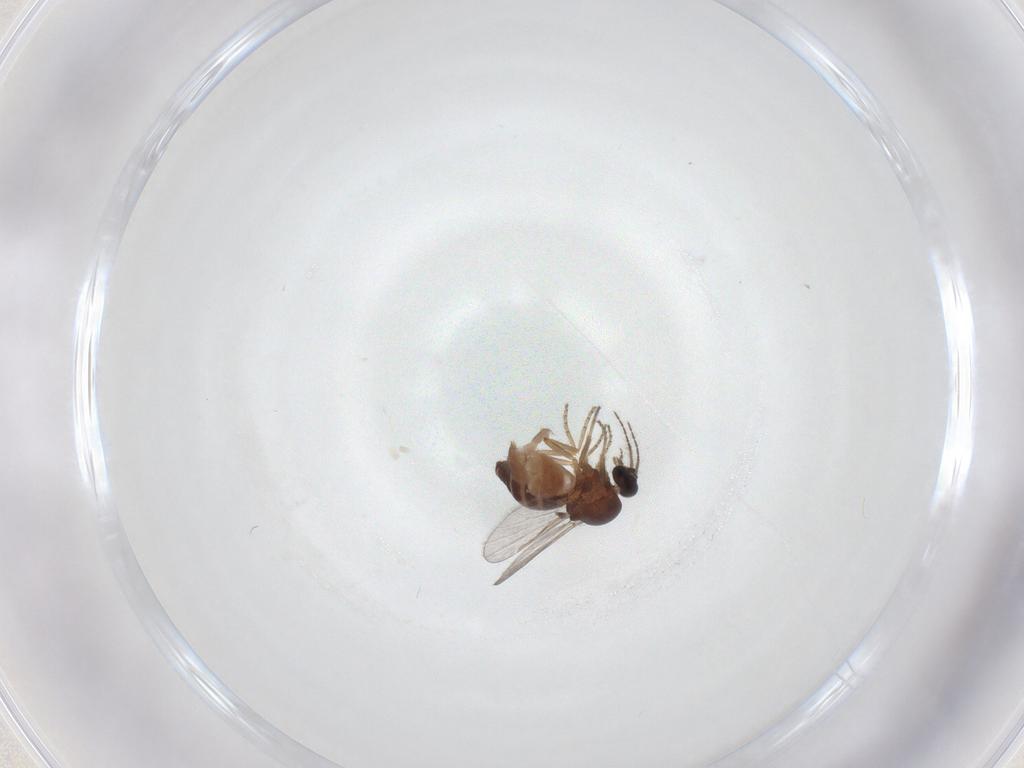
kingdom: Animalia
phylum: Arthropoda
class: Insecta
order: Diptera
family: Ceratopogonidae
